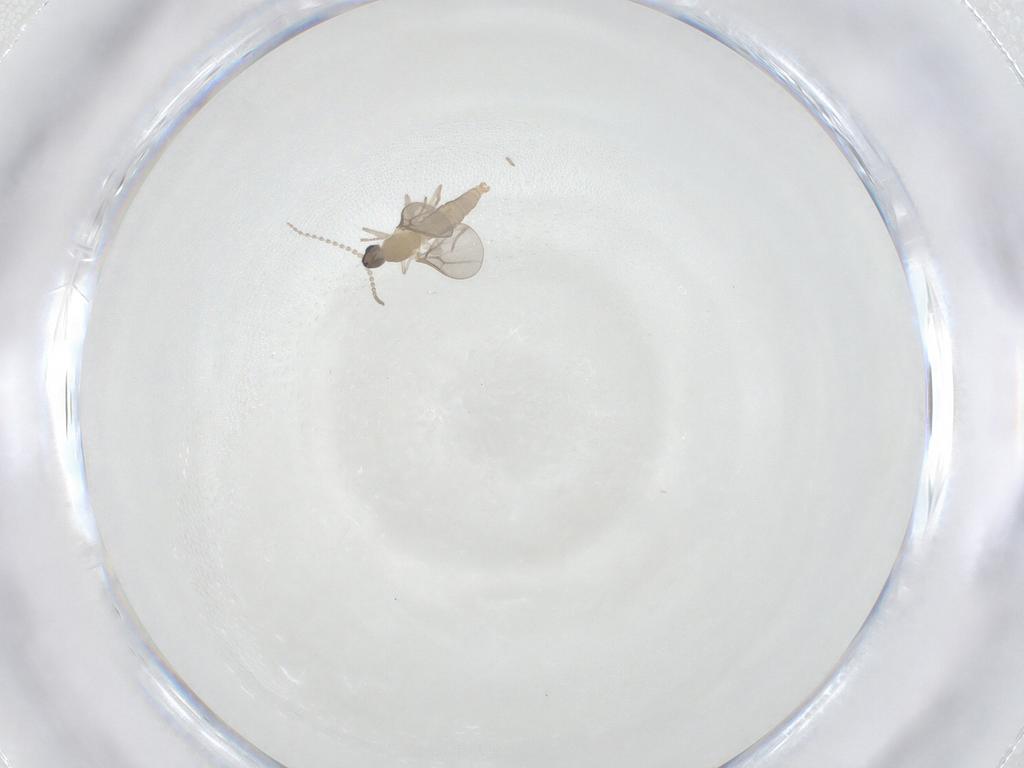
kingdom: Animalia
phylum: Arthropoda
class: Insecta
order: Diptera
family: Cecidomyiidae
